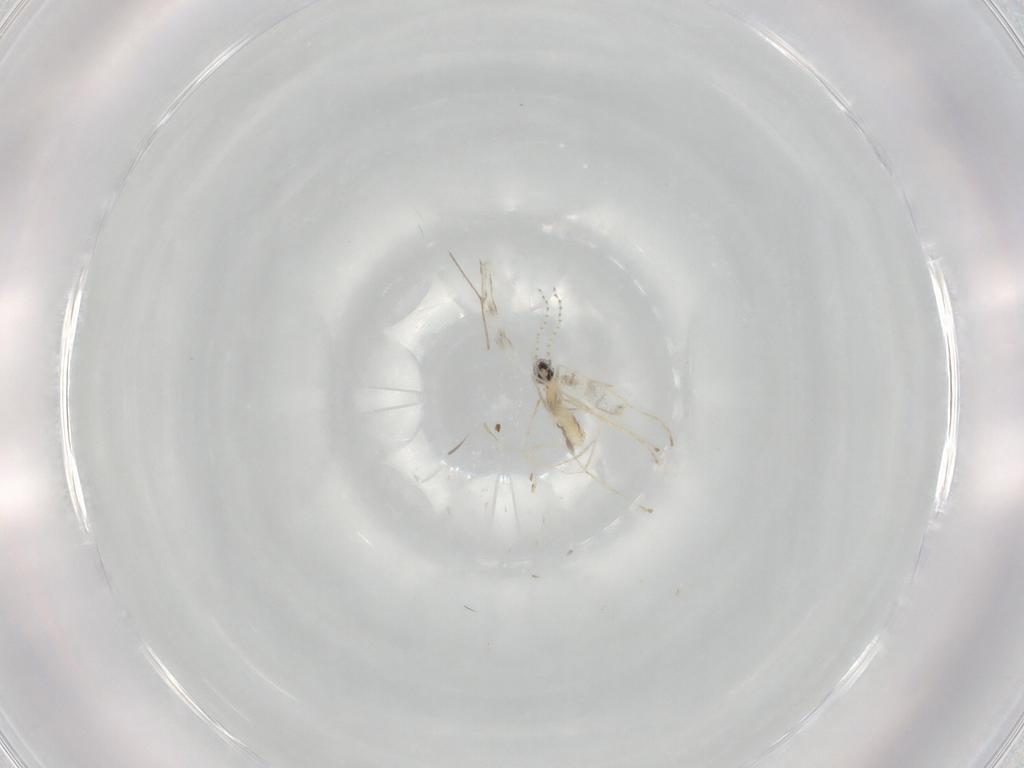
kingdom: Animalia
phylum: Arthropoda
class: Insecta
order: Diptera
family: Cecidomyiidae
